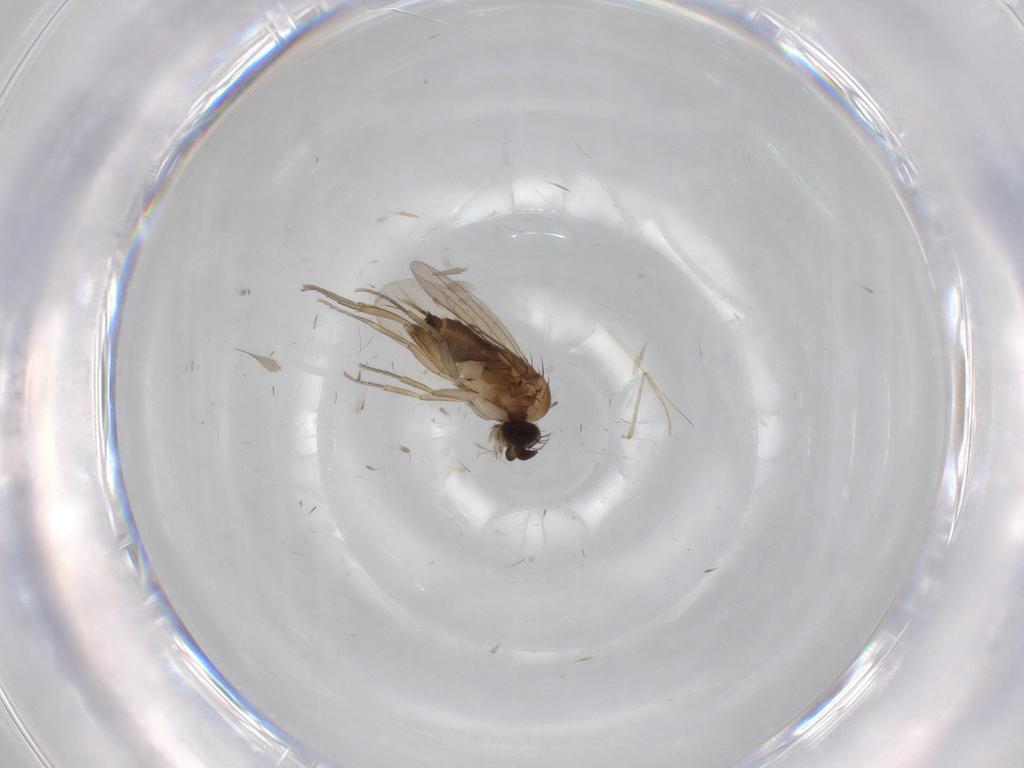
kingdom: Animalia
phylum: Arthropoda
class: Insecta
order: Diptera
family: Phoridae
